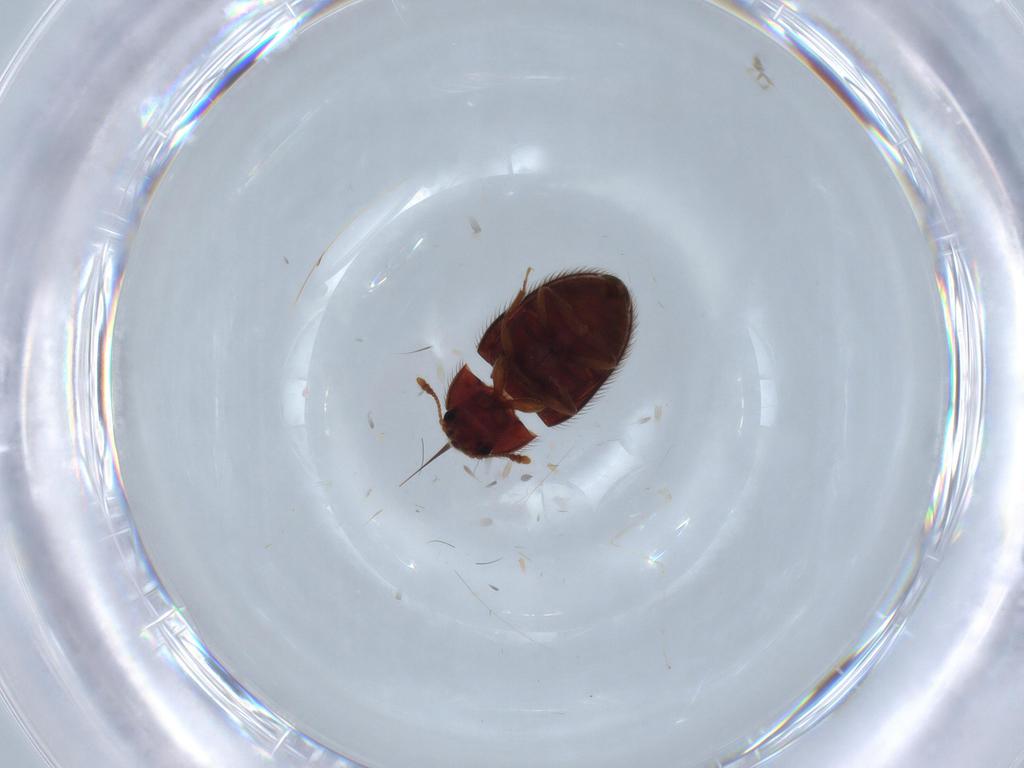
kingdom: Animalia
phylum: Arthropoda
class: Insecta
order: Coleoptera
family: Biphyllidae
